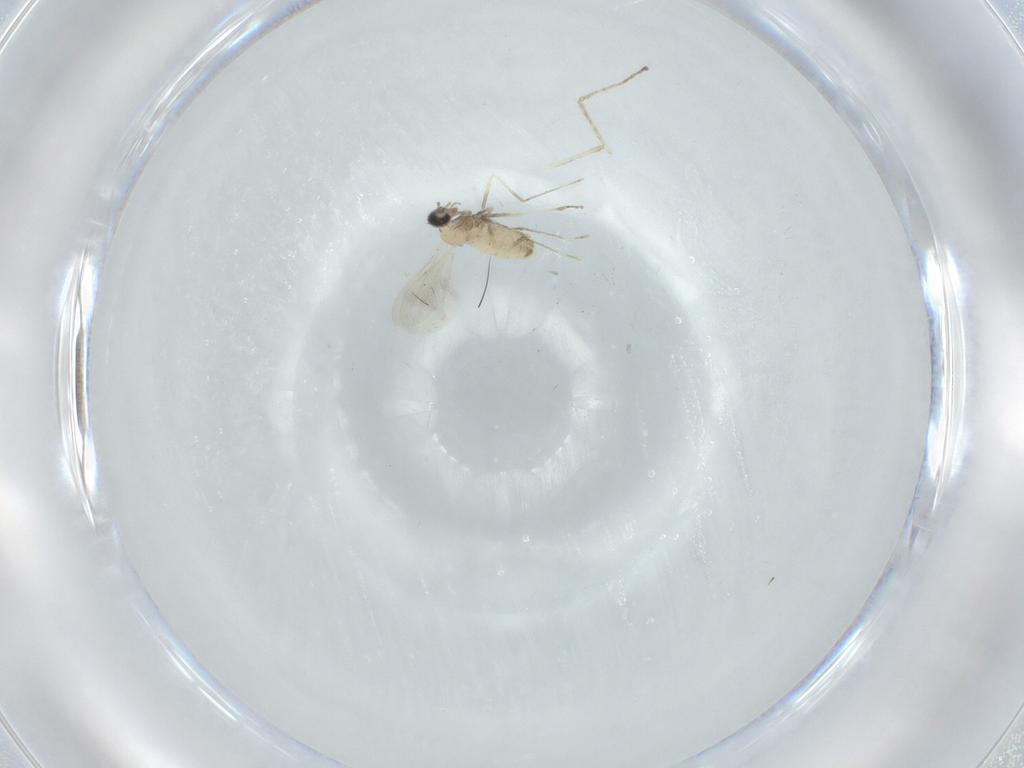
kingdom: Animalia
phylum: Arthropoda
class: Insecta
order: Diptera
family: Cecidomyiidae
